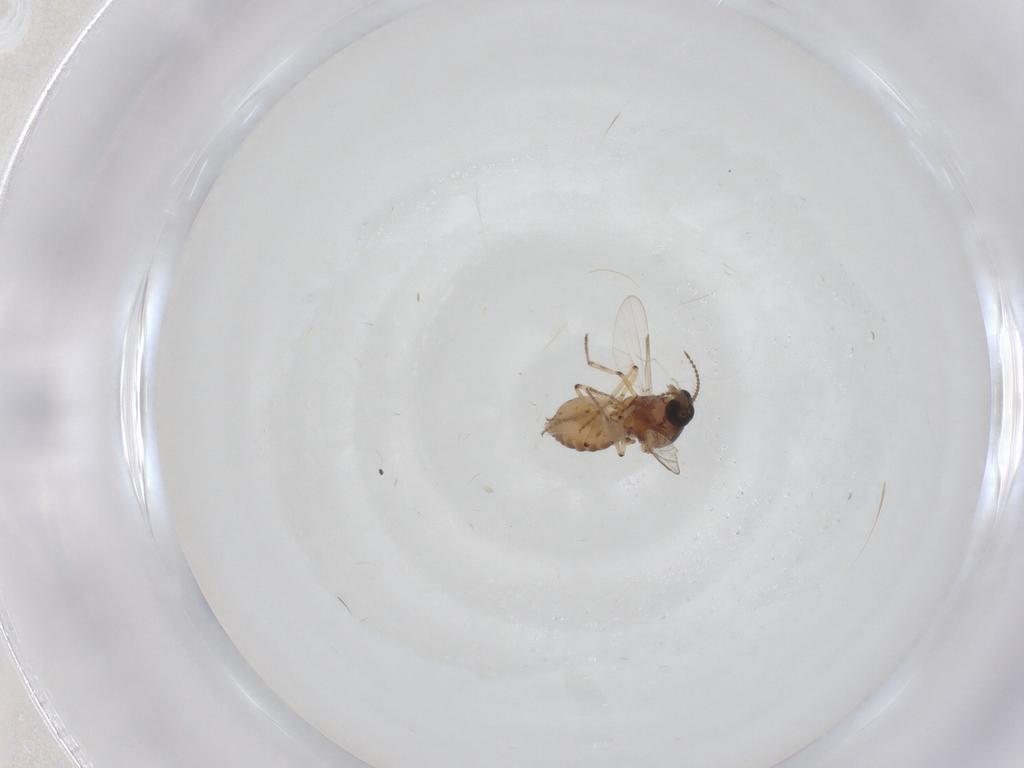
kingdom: Animalia
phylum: Arthropoda
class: Insecta
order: Diptera
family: Ceratopogonidae
